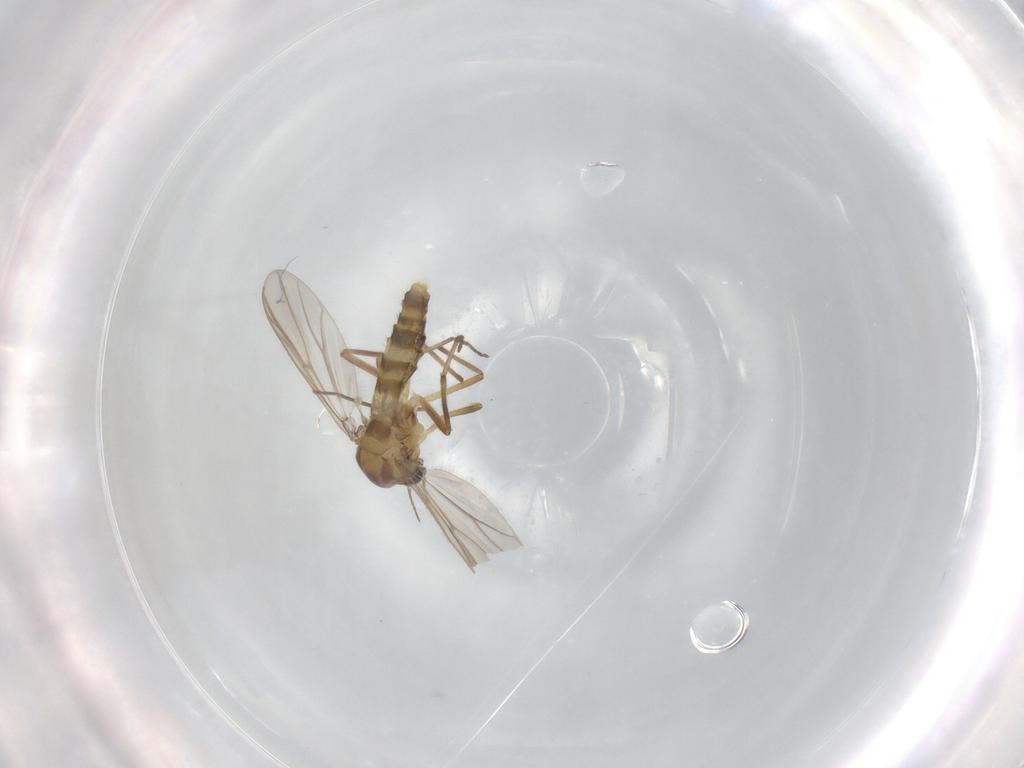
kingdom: Animalia
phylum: Arthropoda
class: Insecta
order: Diptera
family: Chironomidae
